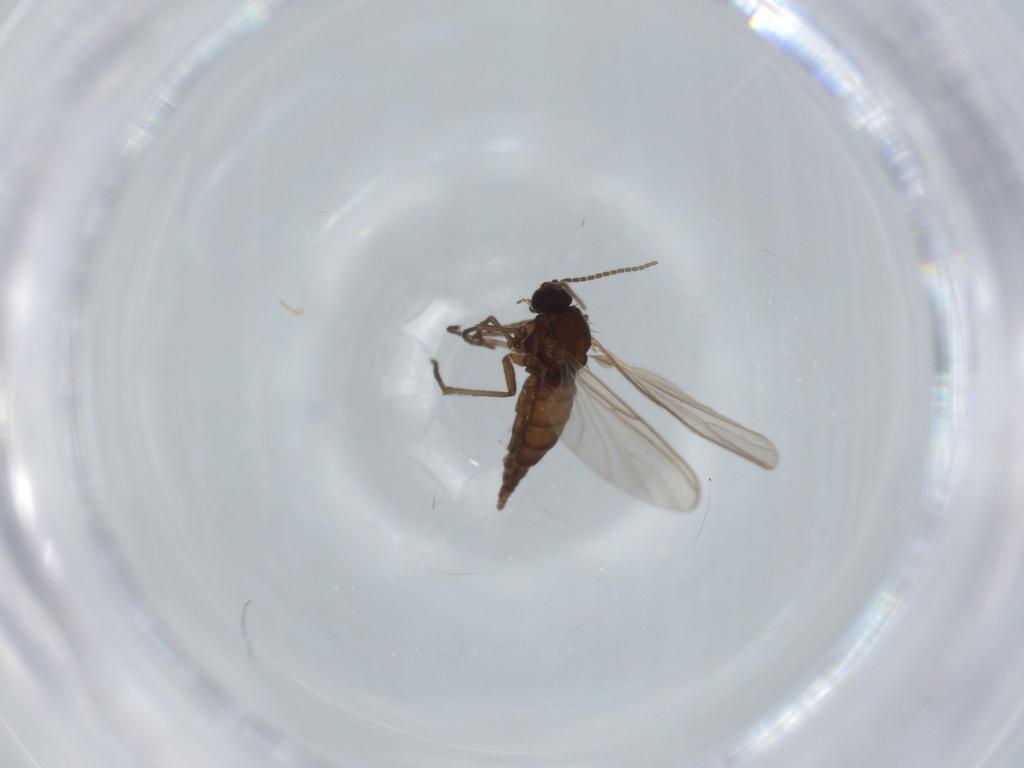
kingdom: Animalia
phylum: Arthropoda
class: Insecta
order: Diptera
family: Sciaridae
